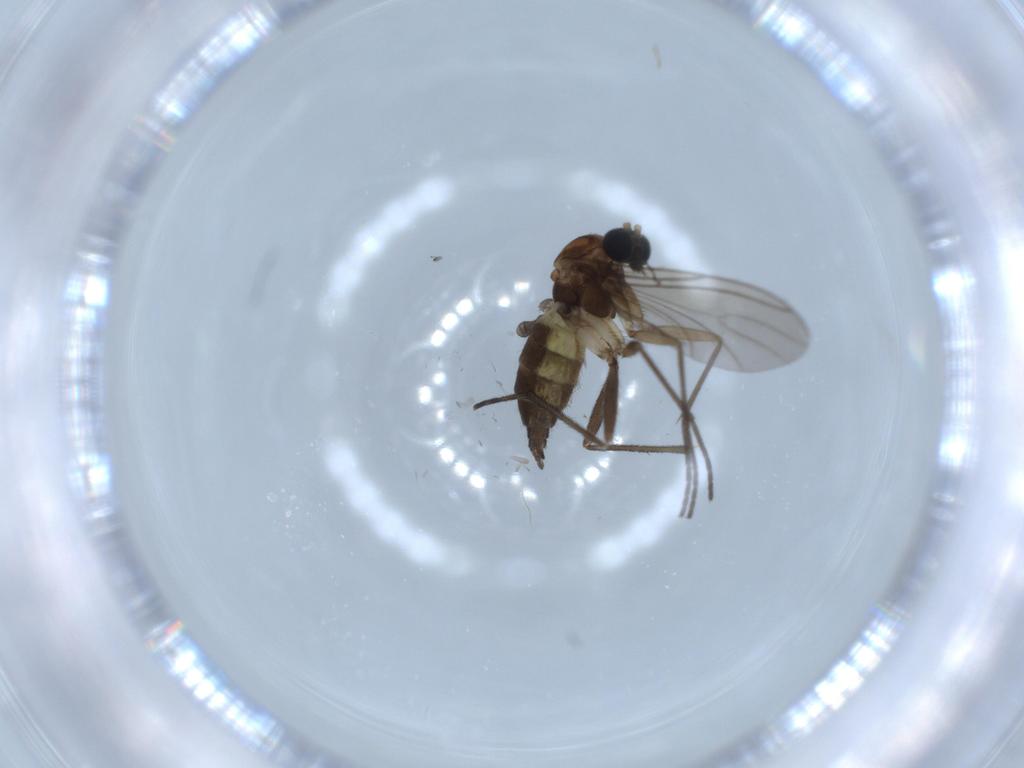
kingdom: Animalia
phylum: Arthropoda
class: Insecta
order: Diptera
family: Sciaridae
